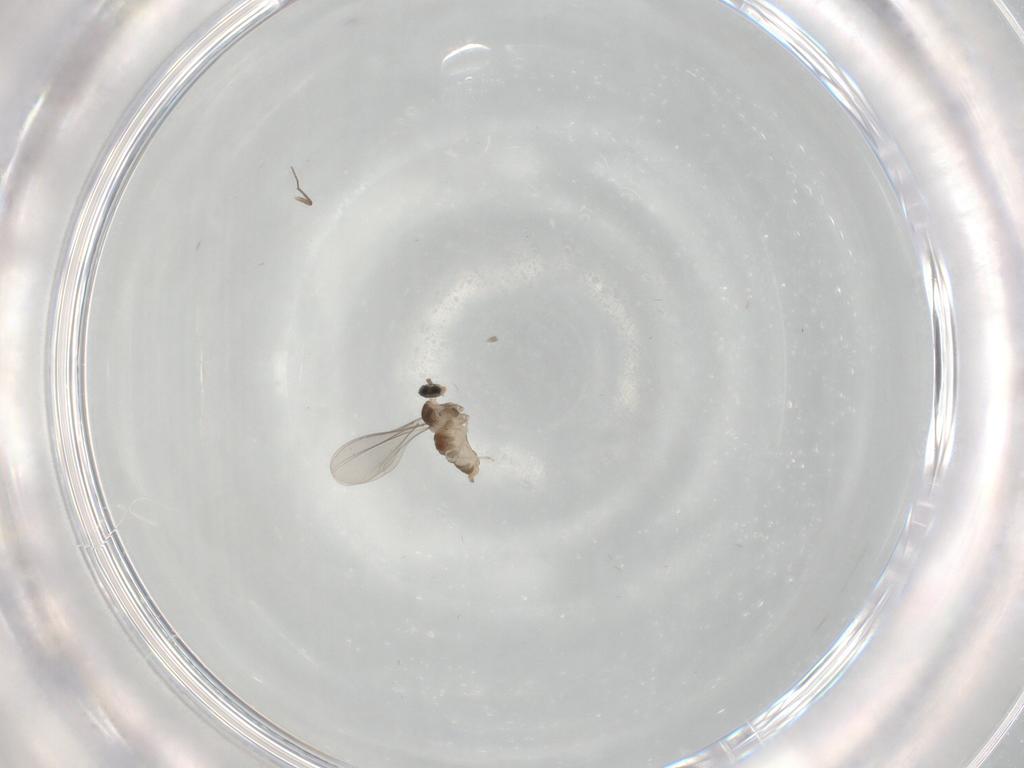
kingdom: Animalia
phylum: Arthropoda
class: Insecta
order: Diptera
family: Cecidomyiidae
